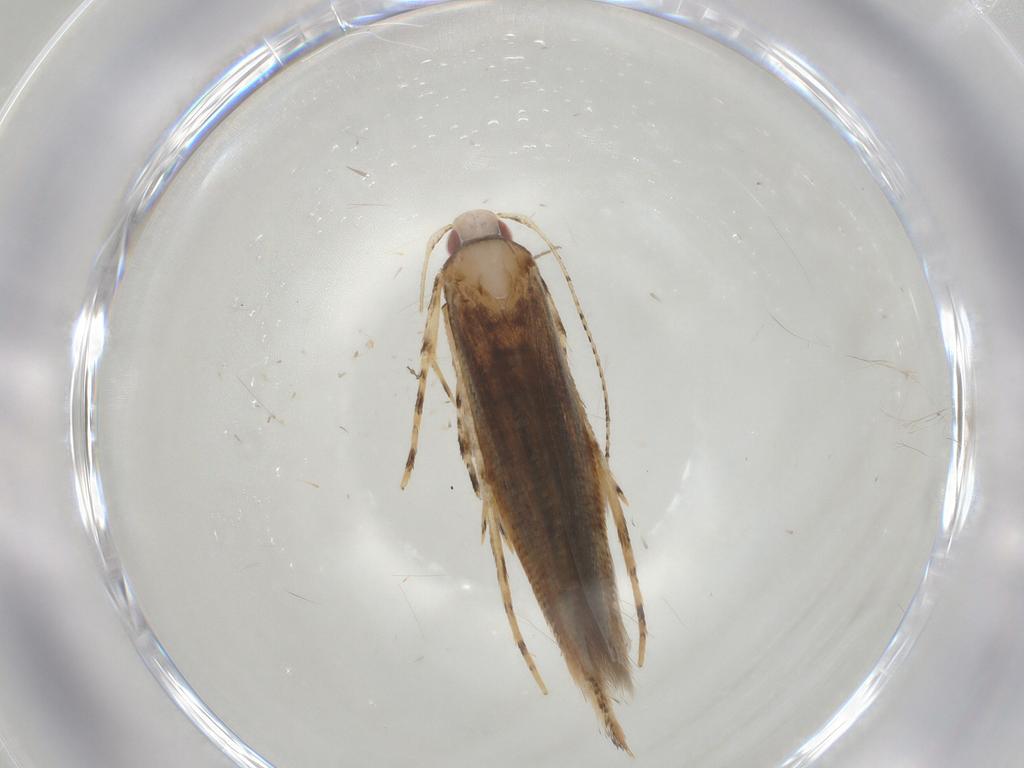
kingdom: Animalia
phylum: Arthropoda
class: Insecta
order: Lepidoptera
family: Cosmopterigidae
